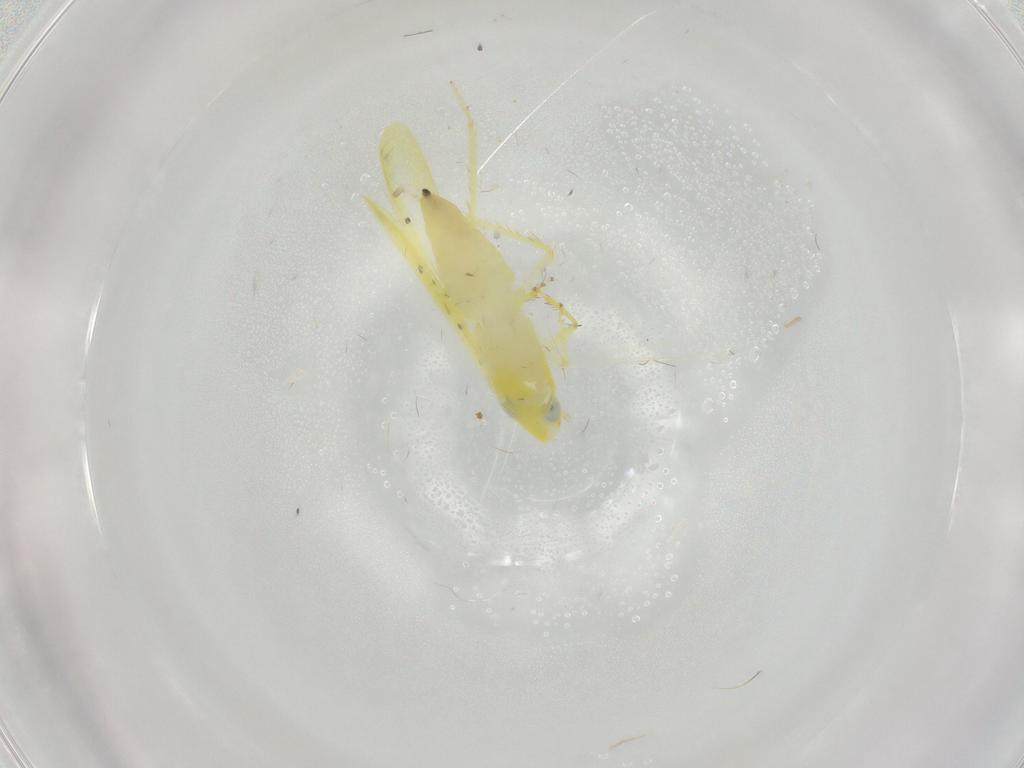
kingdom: Animalia
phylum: Arthropoda
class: Insecta
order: Hemiptera
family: Cicadellidae
